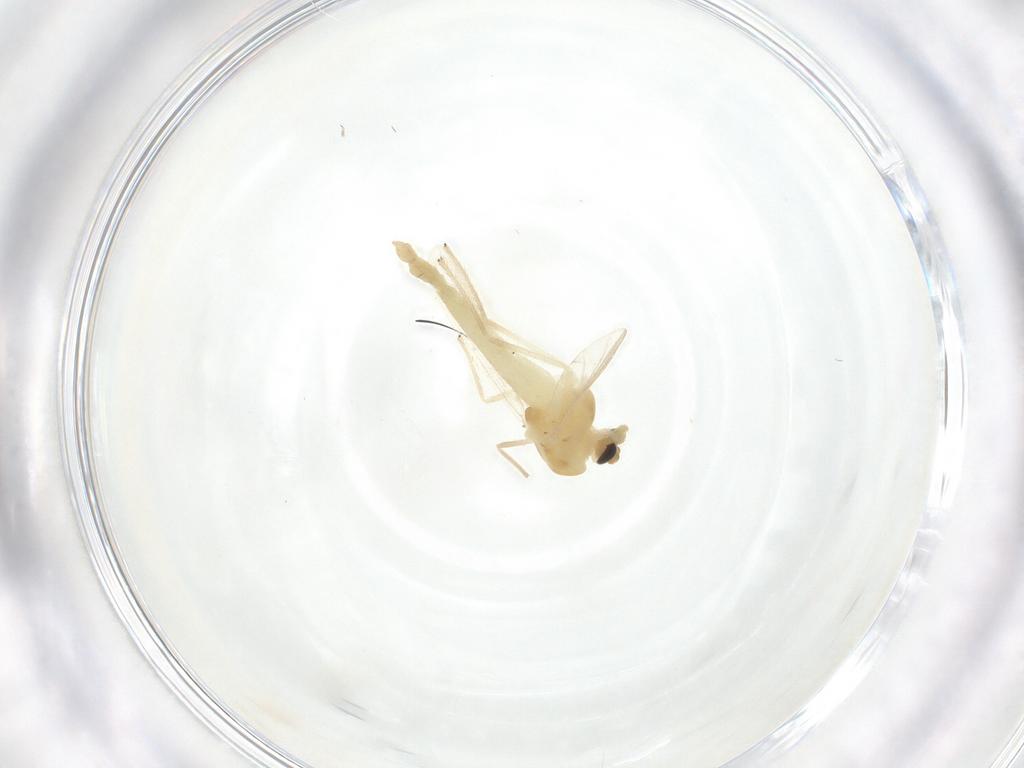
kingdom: Animalia
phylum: Arthropoda
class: Insecta
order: Diptera
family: Chironomidae
